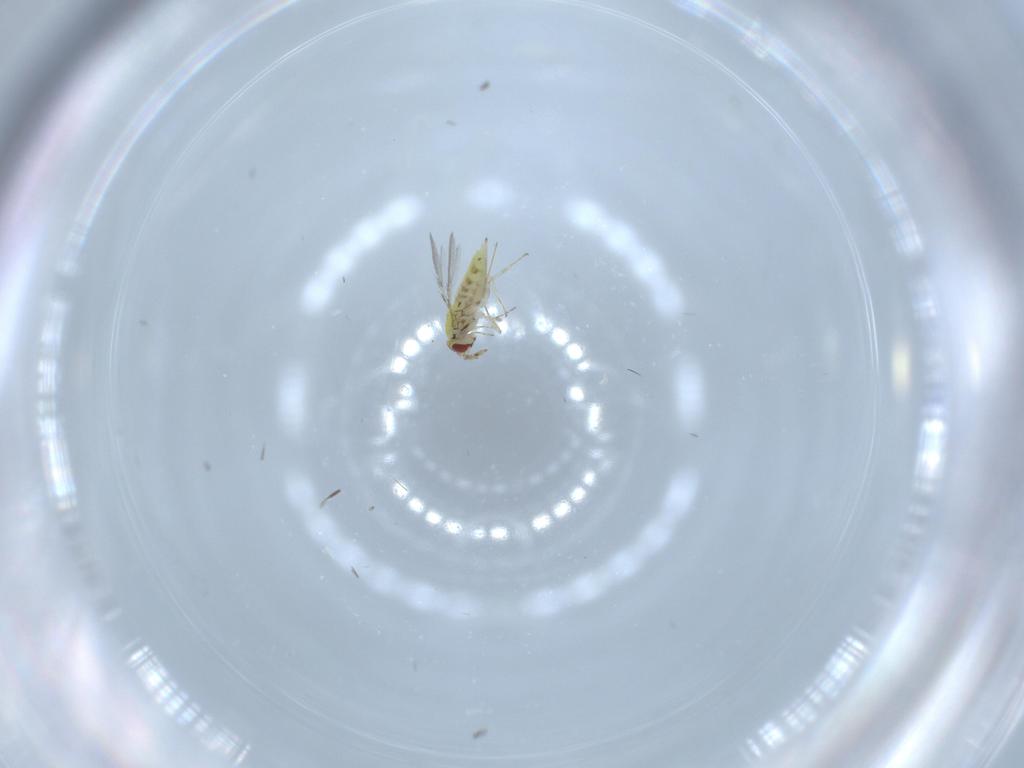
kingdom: Animalia
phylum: Arthropoda
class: Insecta
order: Hymenoptera
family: Trichogrammatidae
